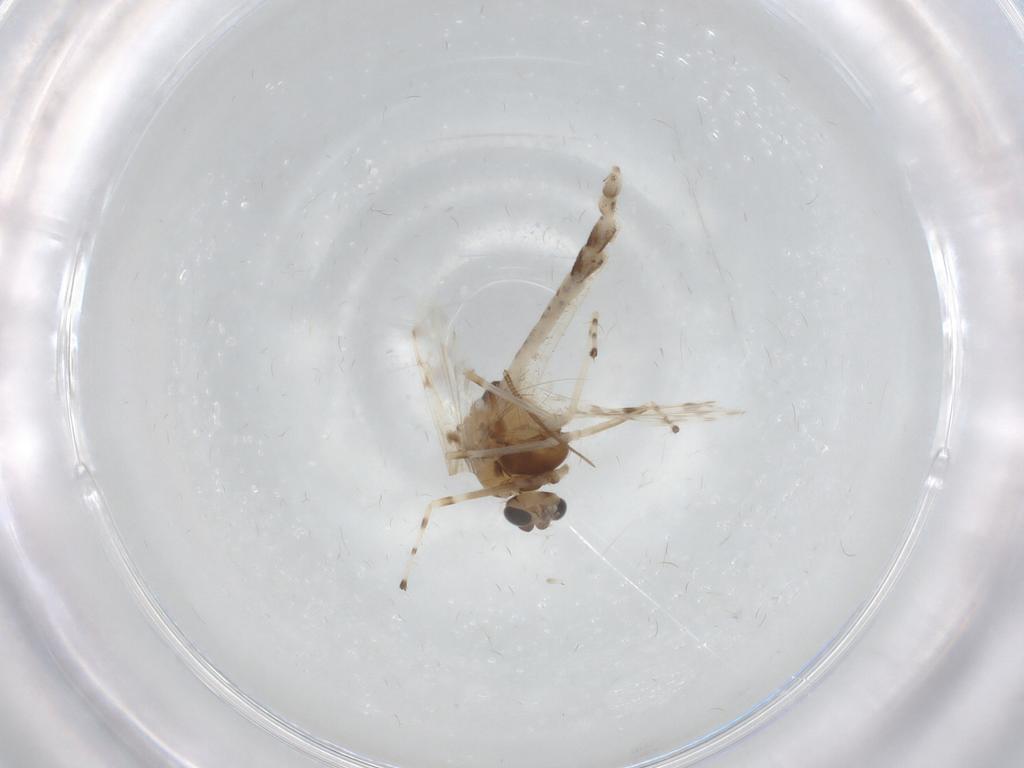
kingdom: Animalia
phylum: Arthropoda
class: Insecta
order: Diptera
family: Chironomidae
